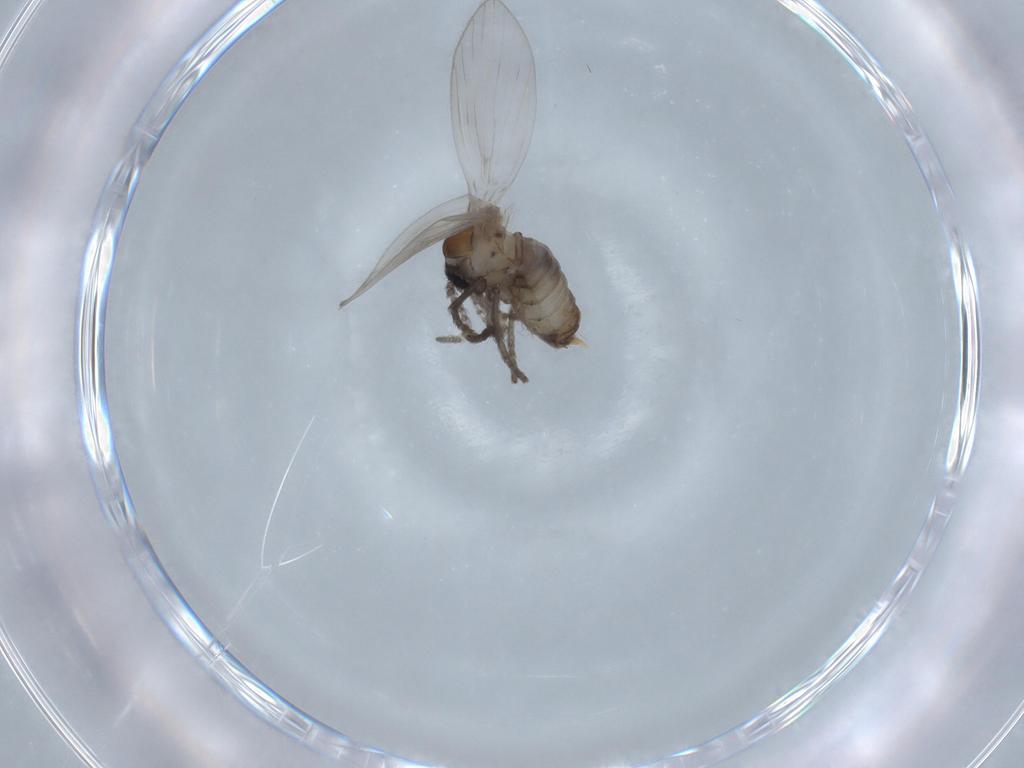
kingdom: Animalia
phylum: Arthropoda
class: Insecta
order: Diptera
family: Psychodidae
